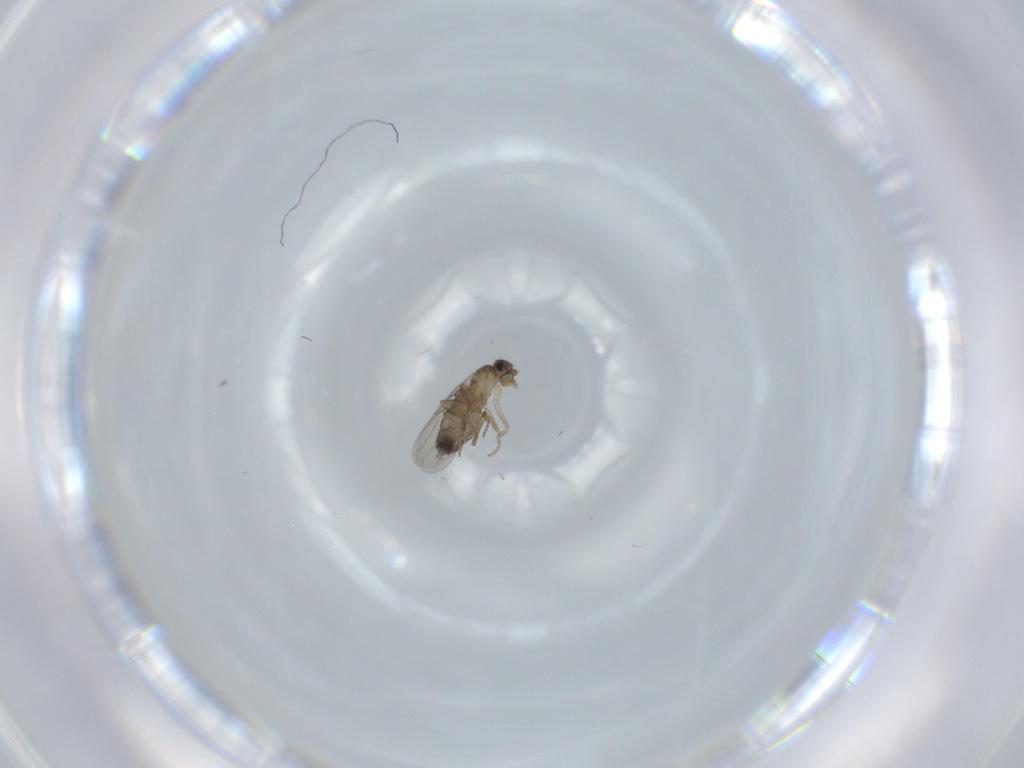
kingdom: Animalia
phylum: Arthropoda
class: Insecta
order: Diptera
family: Phoridae
